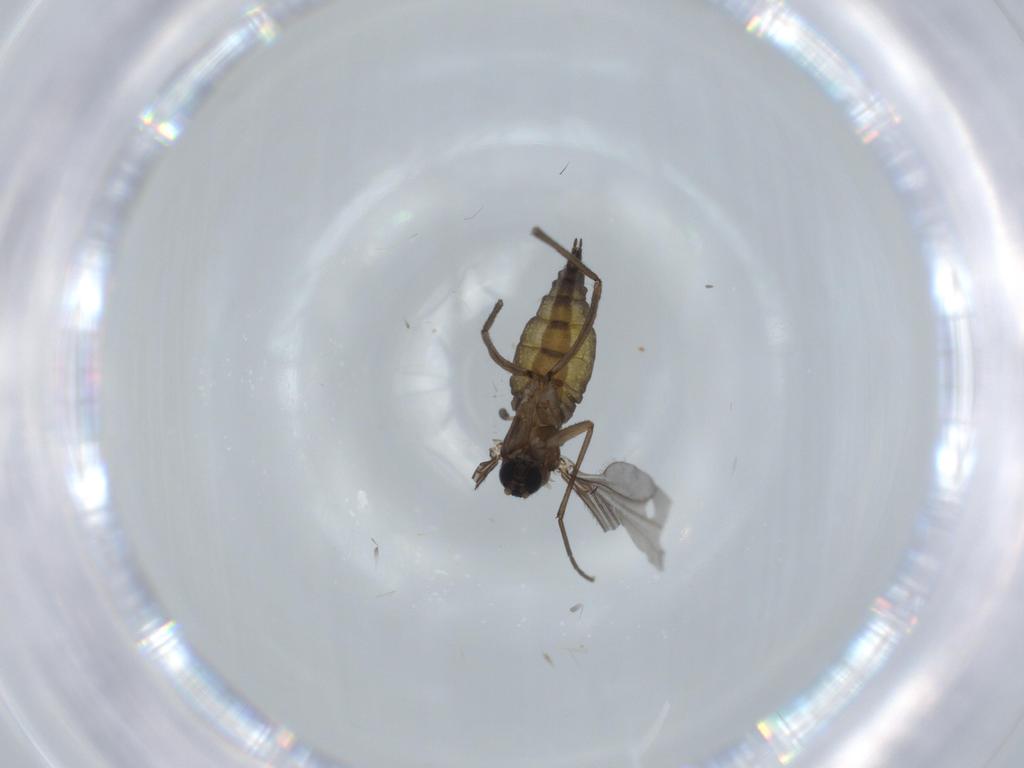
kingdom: Animalia
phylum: Arthropoda
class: Insecta
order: Diptera
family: Sciaridae
